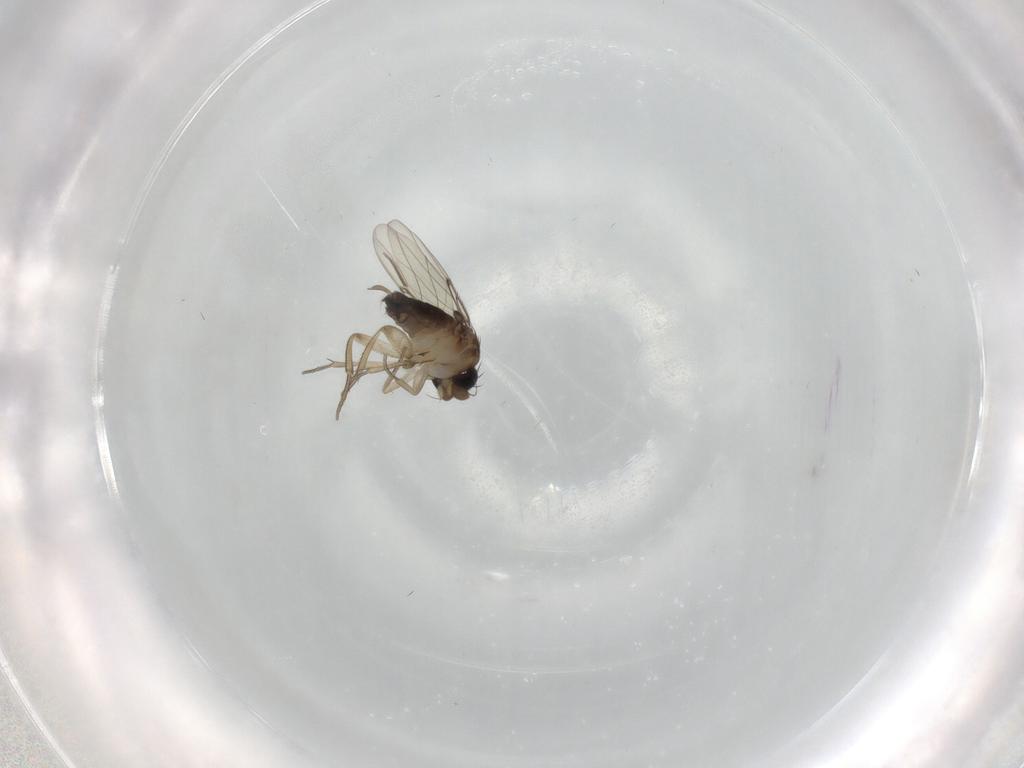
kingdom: Animalia
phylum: Arthropoda
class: Insecta
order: Diptera
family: Phoridae
